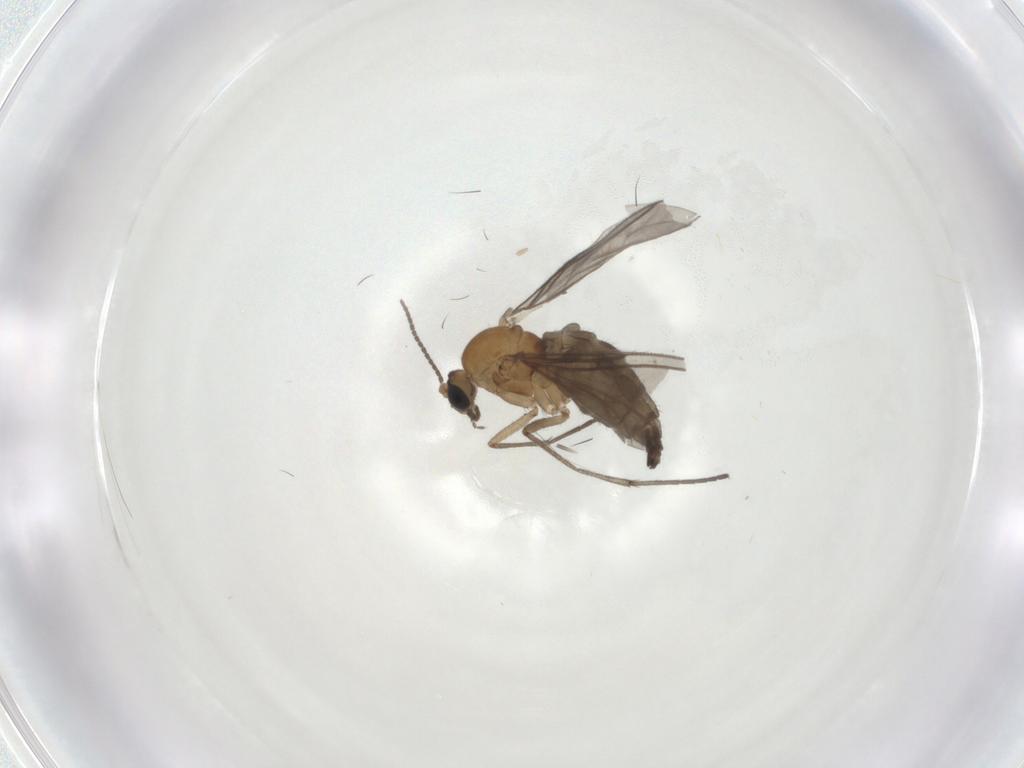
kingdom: Animalia
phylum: Arthropoda
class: Insecta
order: Diptera
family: Sciaridae
